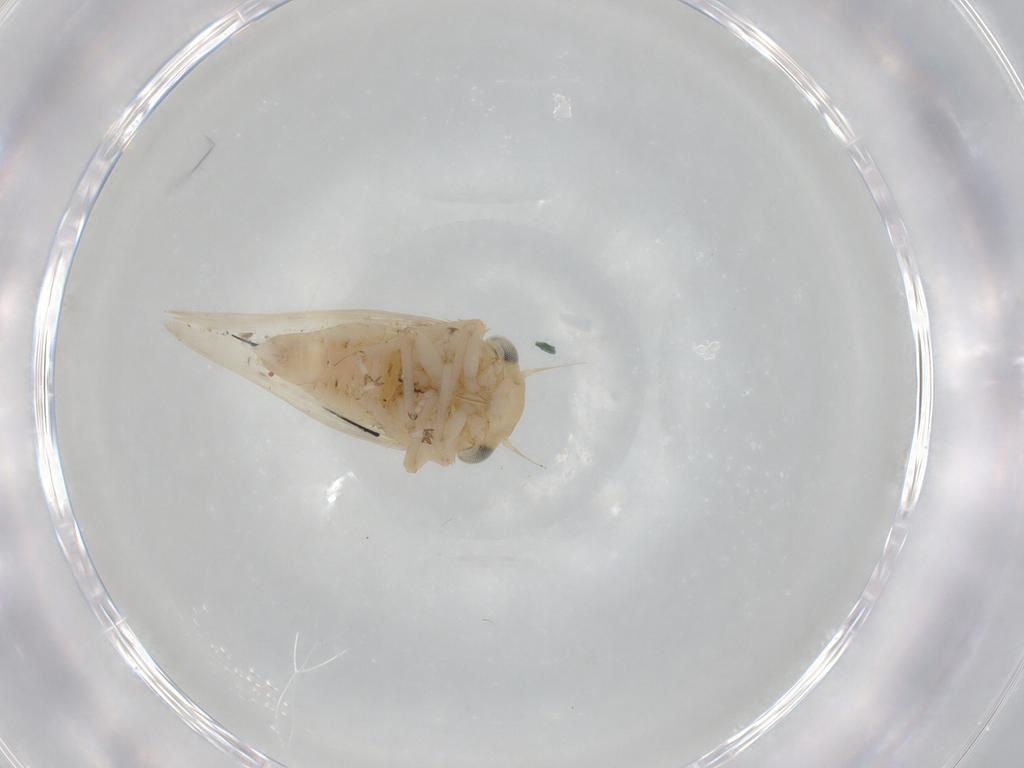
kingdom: Animalia
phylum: Arthropoda
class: Insecta
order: Hemiptera
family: Cicadellidae
